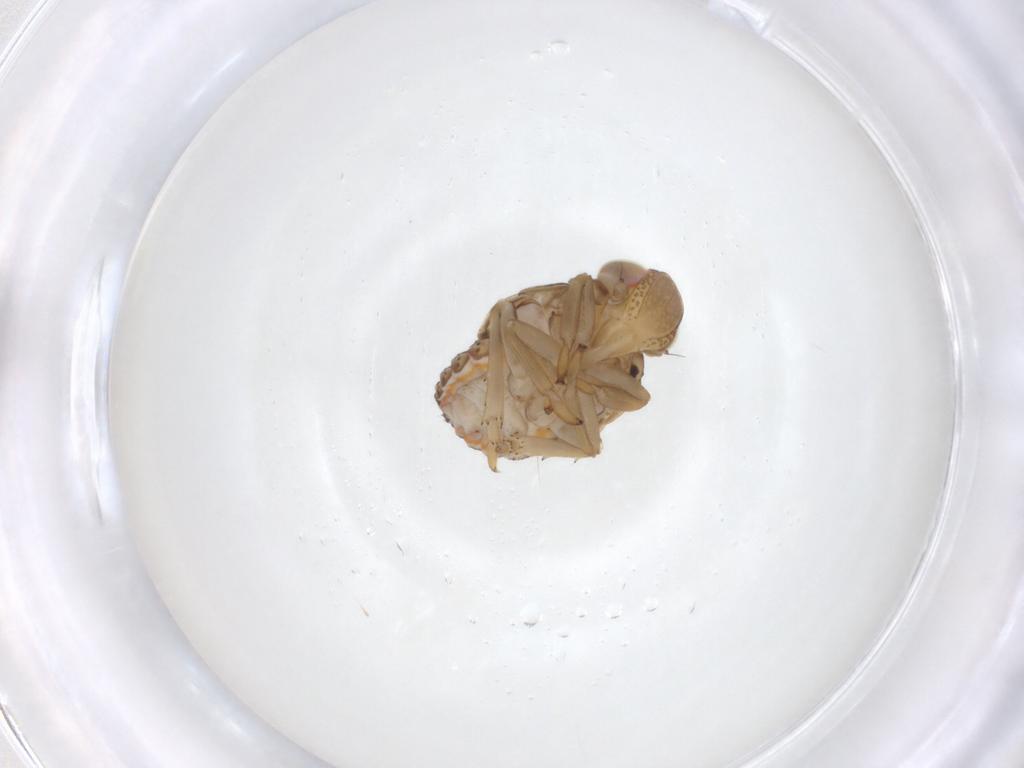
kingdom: Animalia
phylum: Arthropoda
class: Insecta
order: Hemiptera
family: Issidae
